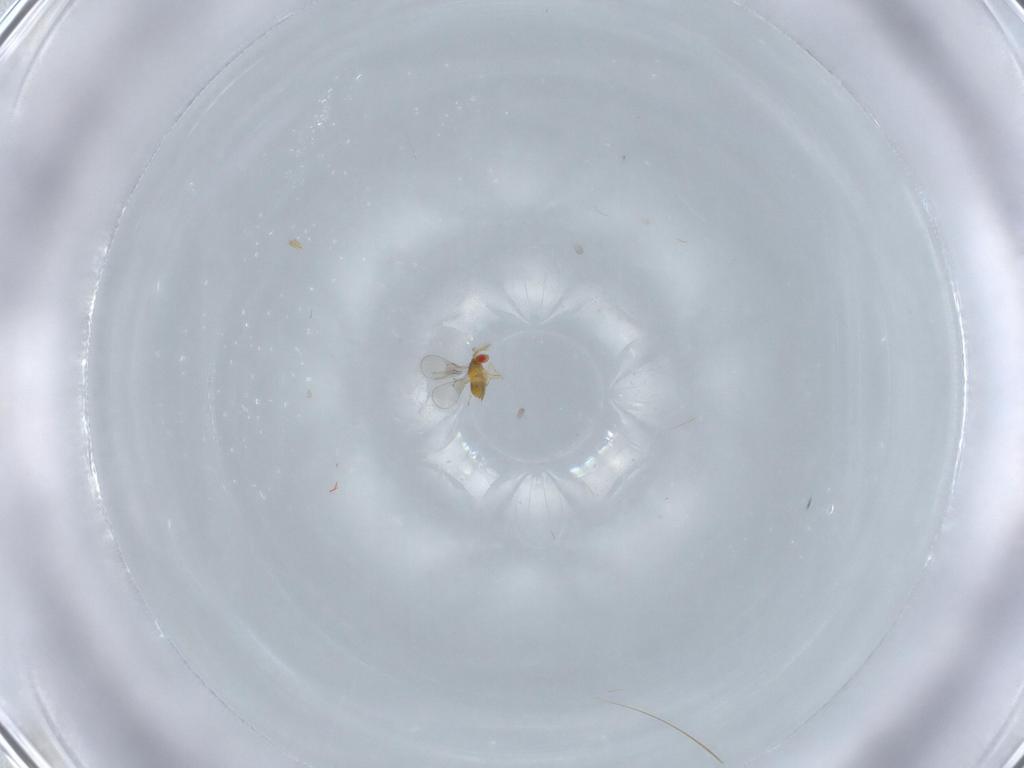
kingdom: Animalia
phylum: Arthropoda
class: Insecta
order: Hymenoptera
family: Trichogrammatidae
